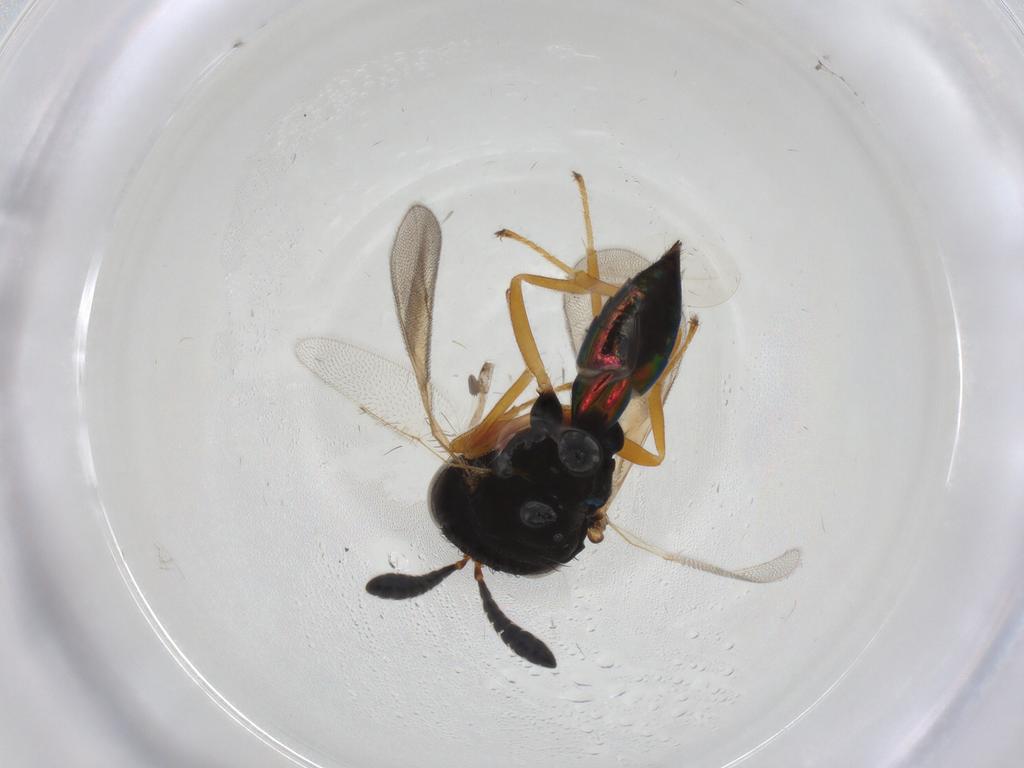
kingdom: Animalia
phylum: Arthropoda
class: Insecta
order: Hymenoptera
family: Pteromalidae
